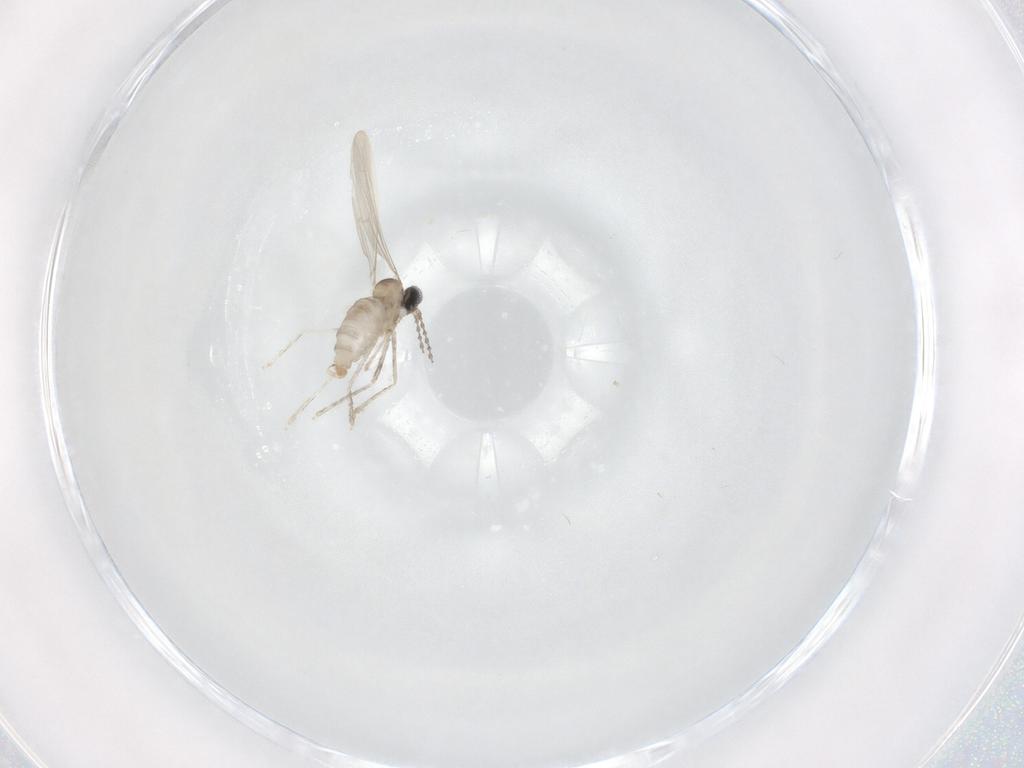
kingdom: Animalia
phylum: Arthropoda
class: Insecta
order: Diptera
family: Cecidomyiidae
